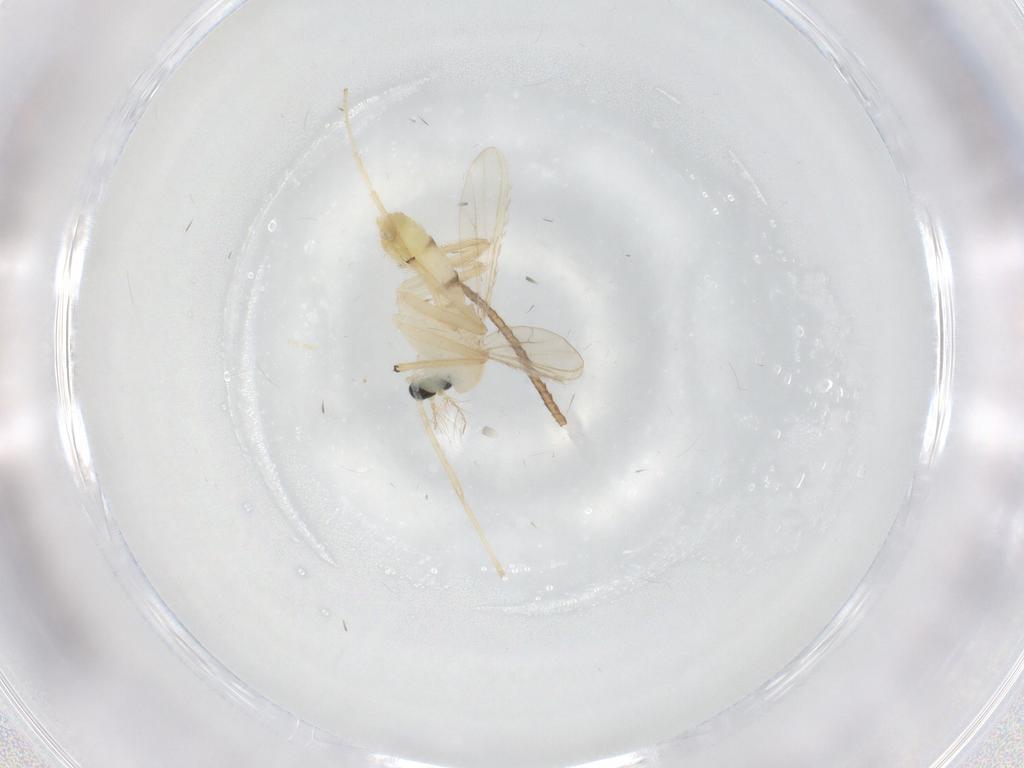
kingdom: Animalia
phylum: Arthropoda
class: Insecta
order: Diptera
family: Chironomidae
